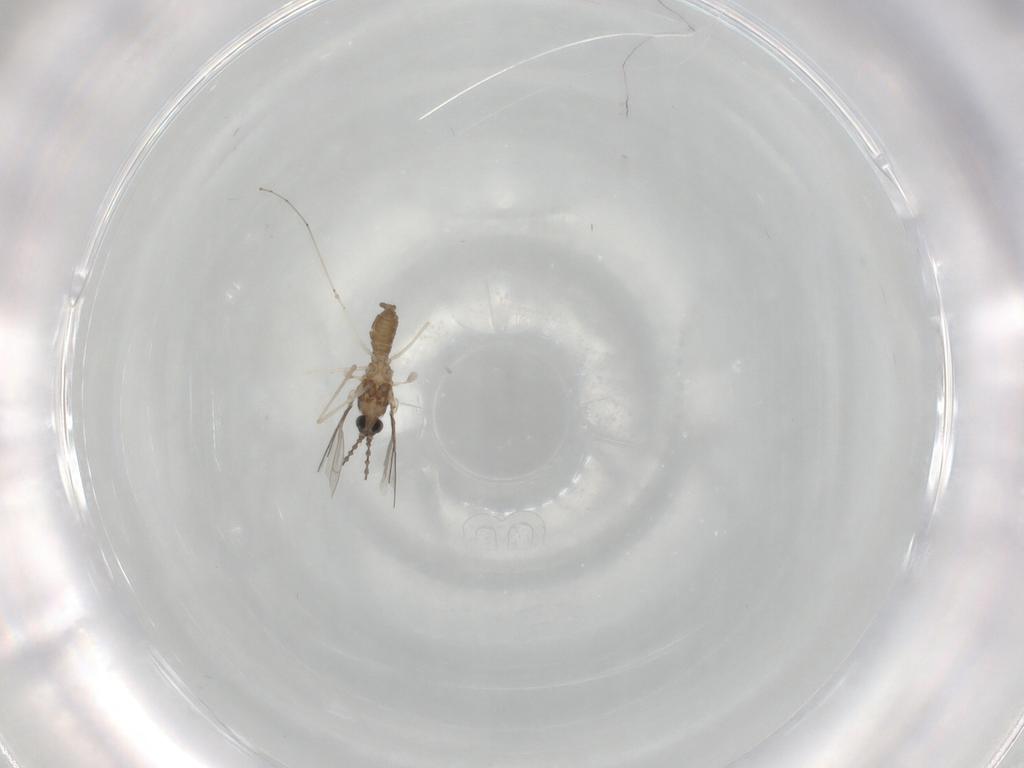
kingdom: Animalia
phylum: Arthropoda
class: Insecta
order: Diptera
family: Cecidomyiidae
